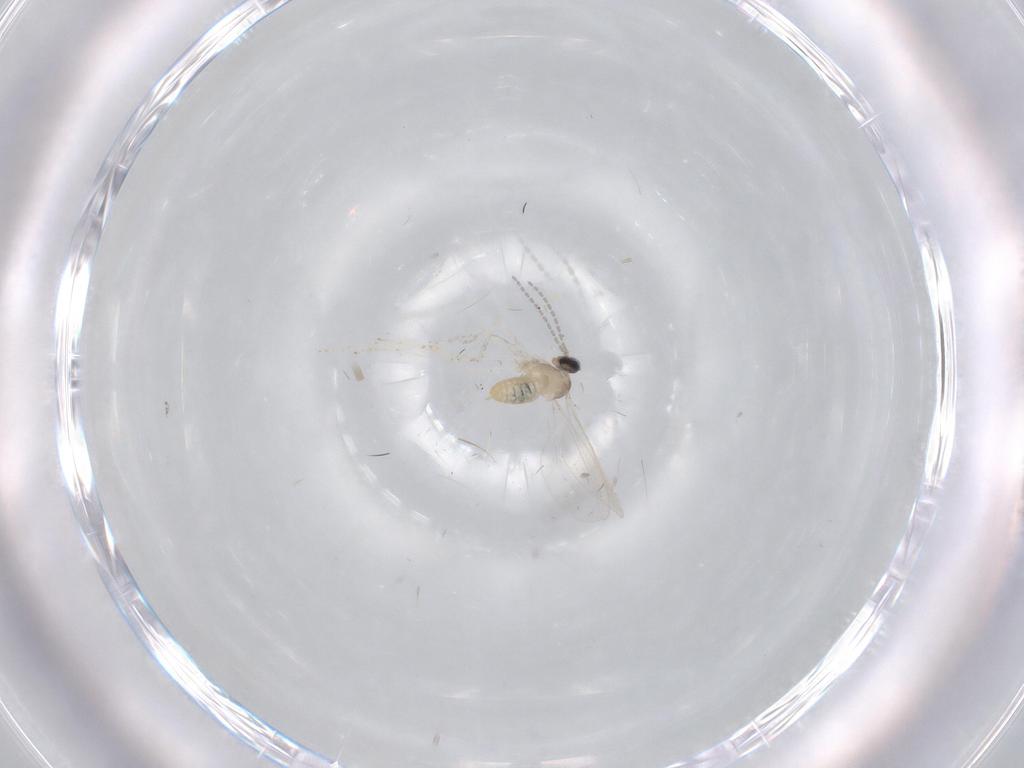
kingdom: Animalia
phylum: Arthropoda
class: Insecta
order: Diptera
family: Cecidomyiidae
